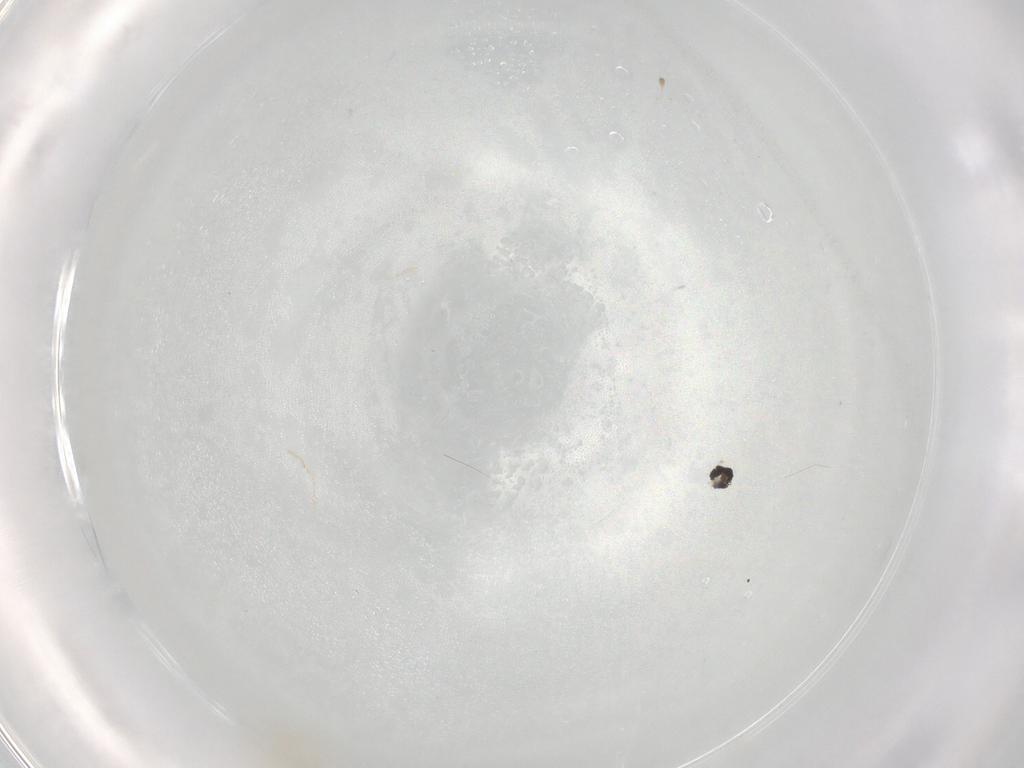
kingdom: Animalia
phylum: Arthropoda
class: Insecta
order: Diptera
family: Cecidomyiidae
